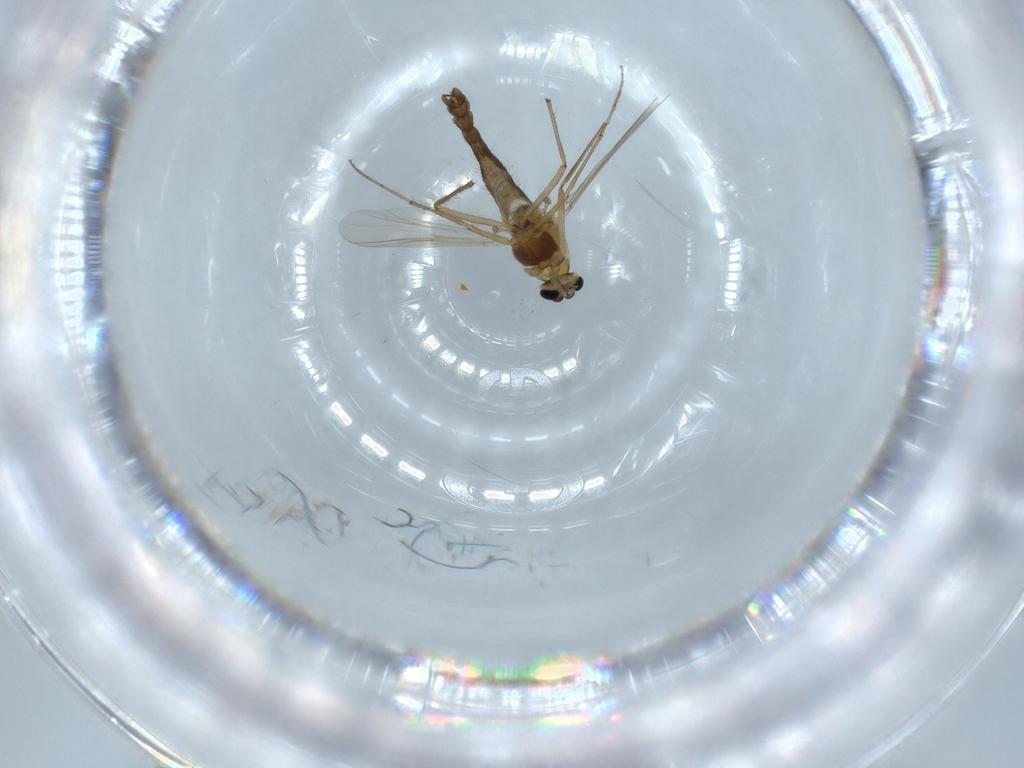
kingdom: Animalia
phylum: Arthropoda
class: Insecta
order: Diptera
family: Chironomidae
